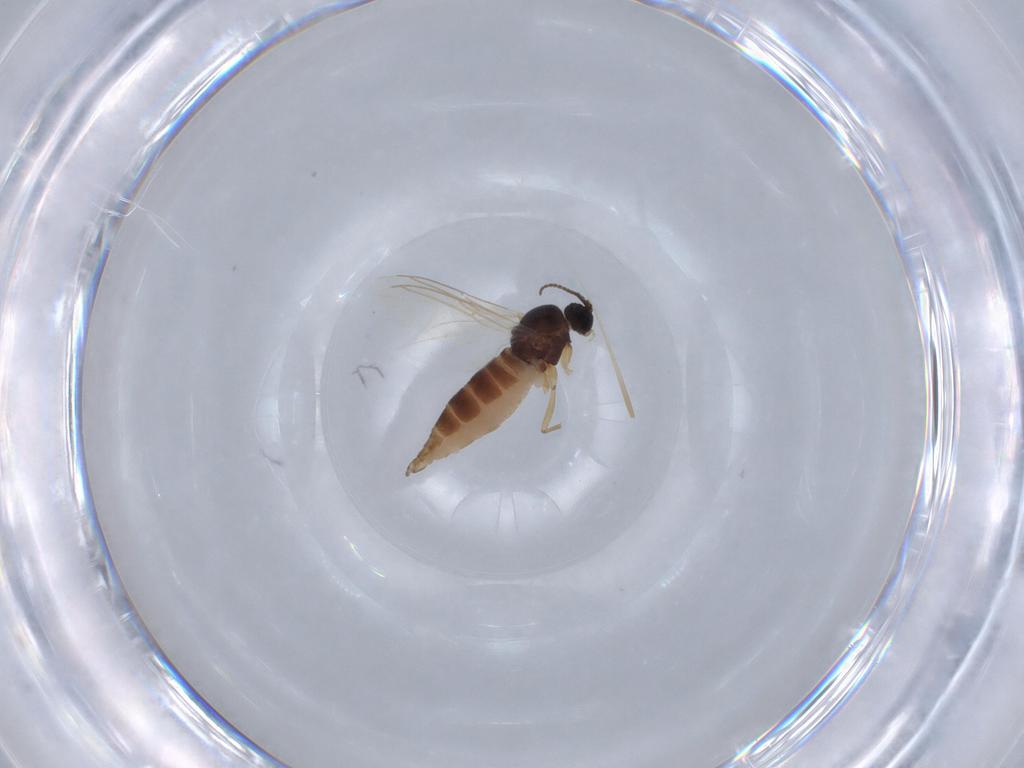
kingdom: Animalia
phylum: Arthropoda
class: Insecta
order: Diptera
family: Sciaridae
